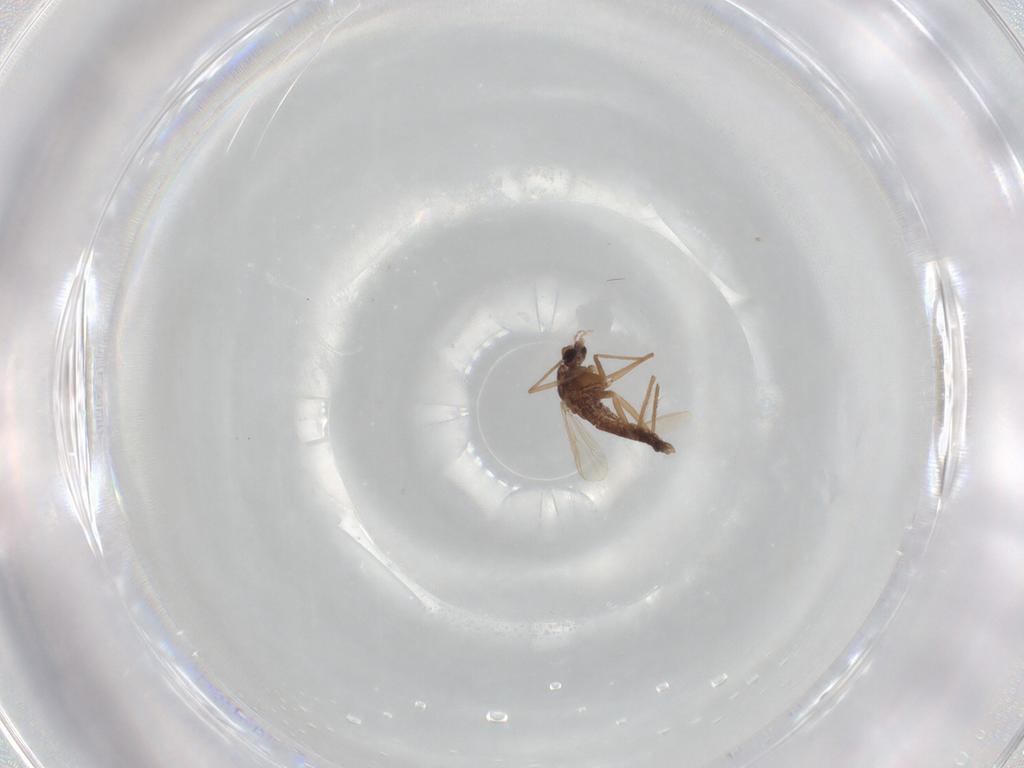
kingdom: Animalia
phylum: Arthropoda
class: Insecta
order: Diptera
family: Chironomidae
